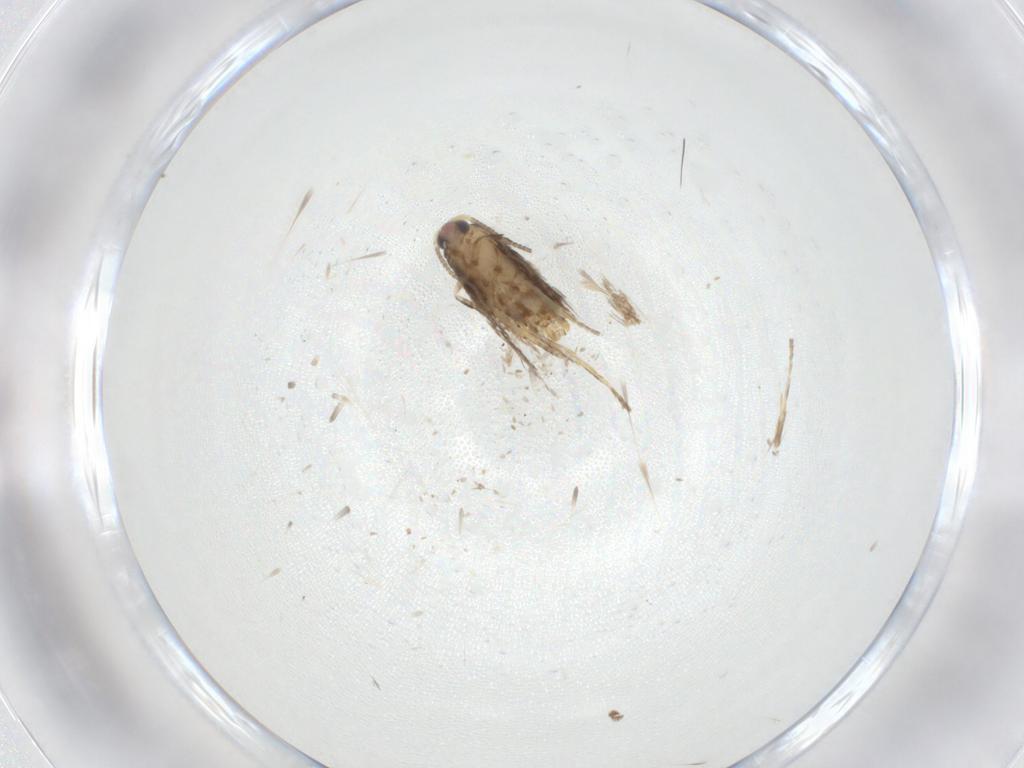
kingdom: Animalia
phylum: Arthropoda
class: Insecta
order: Lepidoptera
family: Nepticulidae
